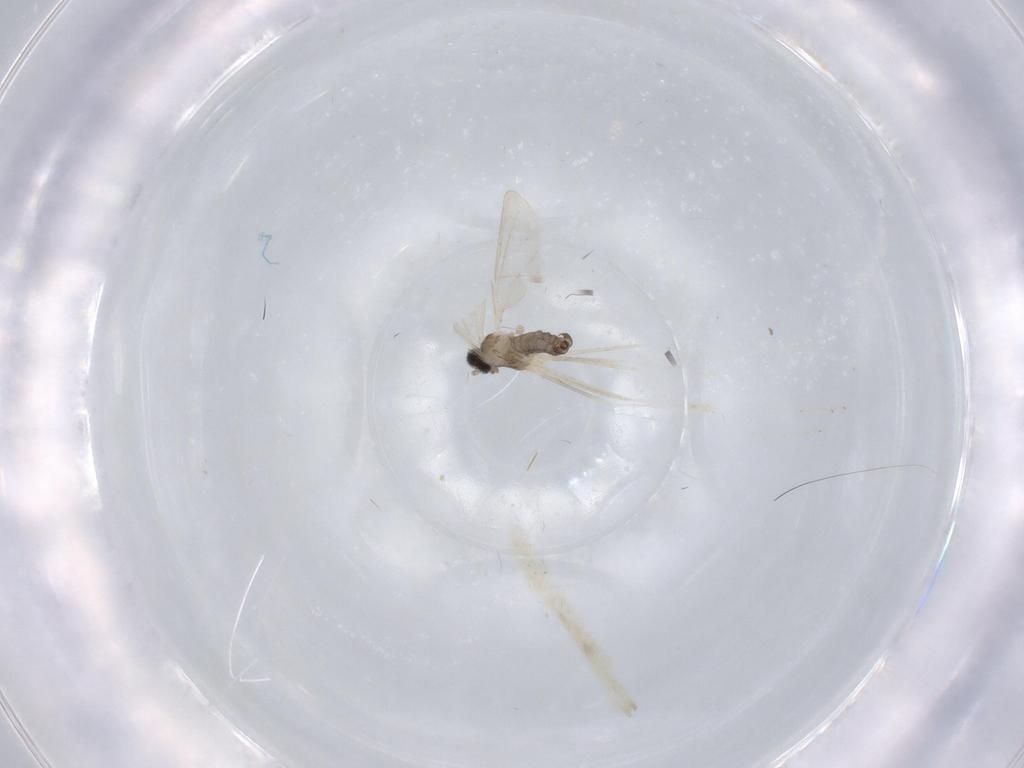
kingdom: Animalia
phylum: Arthropoda
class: Insecta
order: Diptera
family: Cecidomyiidae
